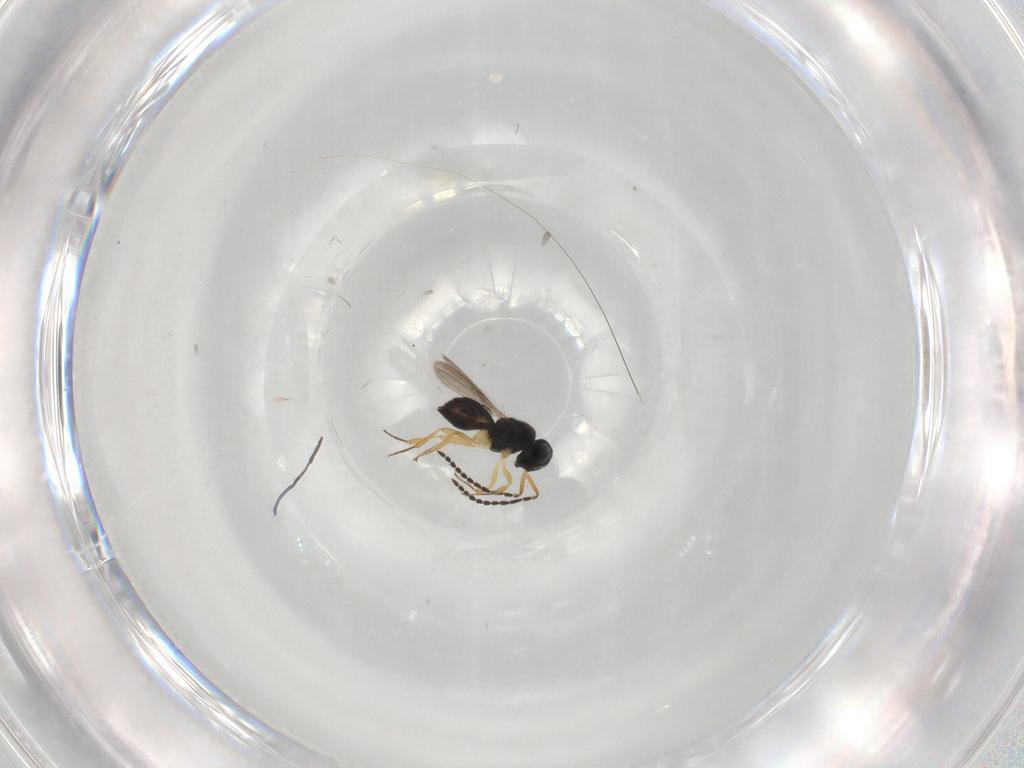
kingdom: Animalia
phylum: Arthropoda
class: Insecta
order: Hymenoptera
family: Scelionidae
